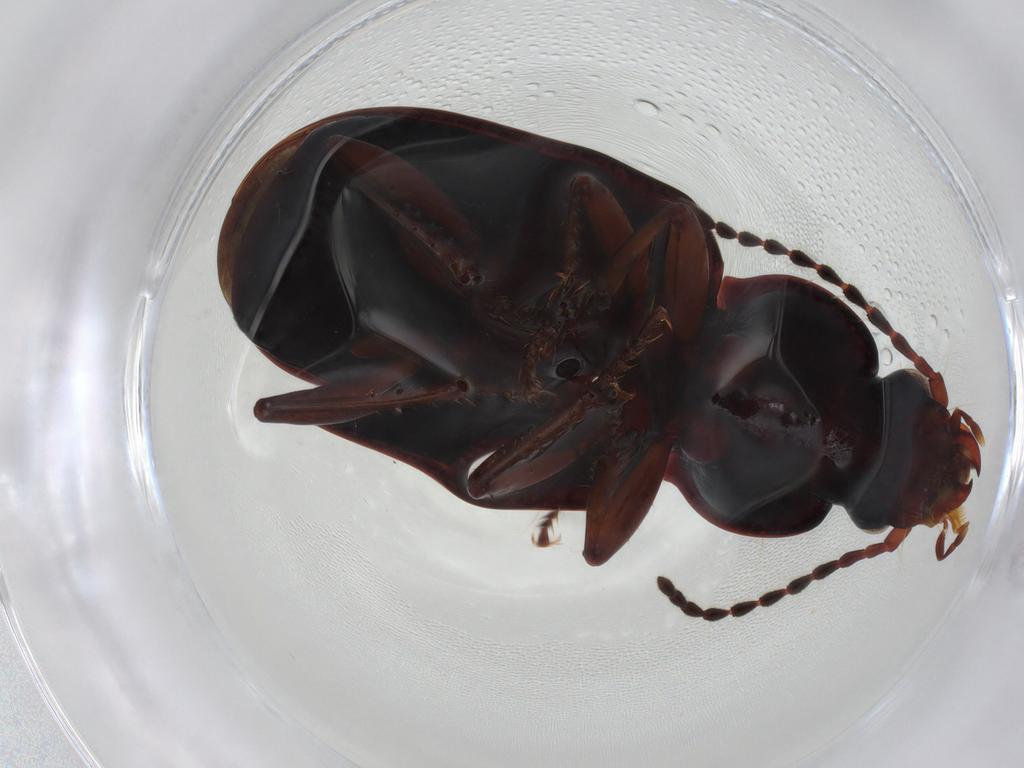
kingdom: Animalia
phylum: Arthropoda
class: Insecta
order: Coleoptera
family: Carabidae
